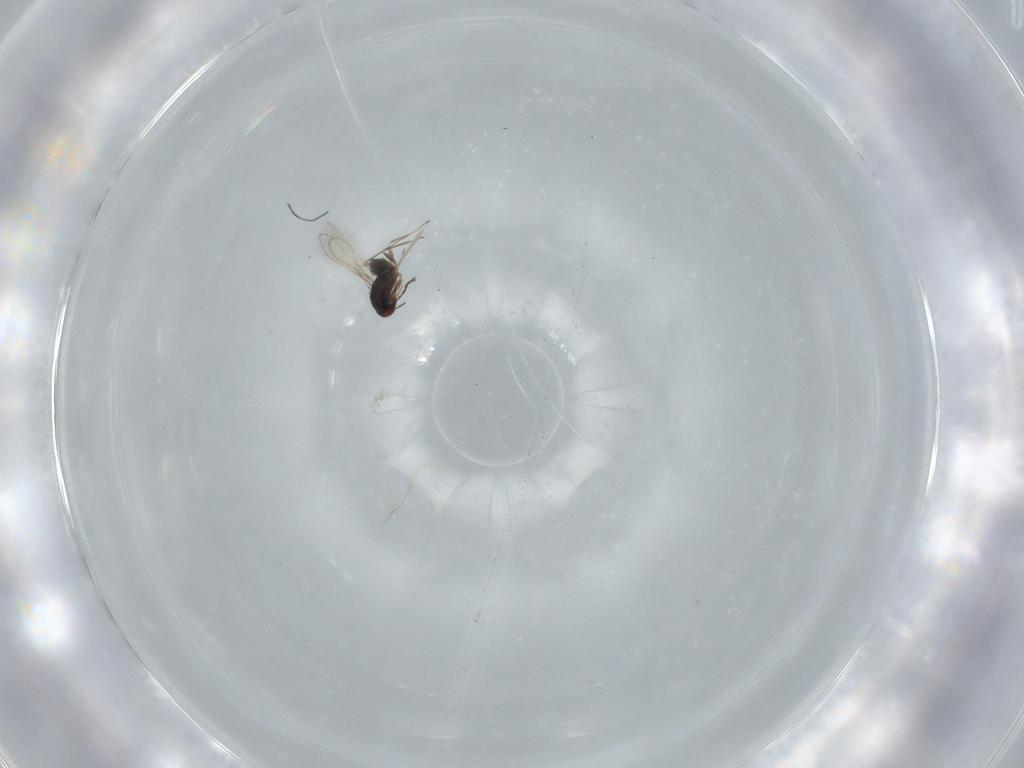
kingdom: Animalia
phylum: Arthropoda
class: Insecta
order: Hymenoptera
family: Mymaridae
